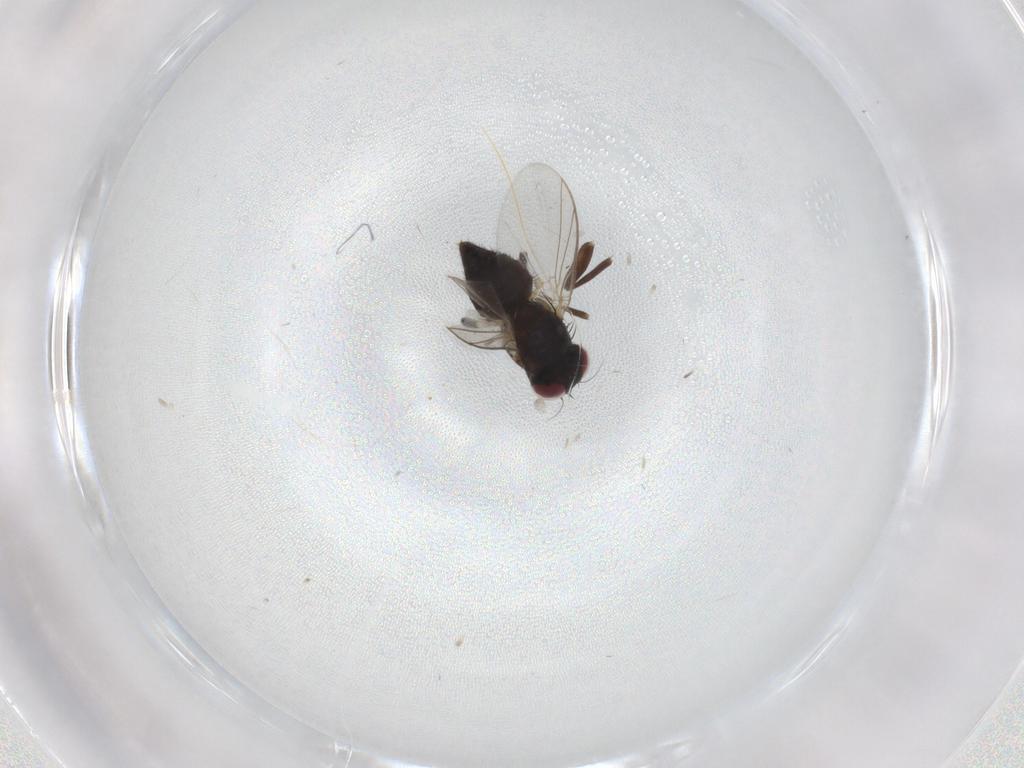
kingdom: Animalia
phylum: Arthropoda
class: Insecta
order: Diptera
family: Agromyzidae
